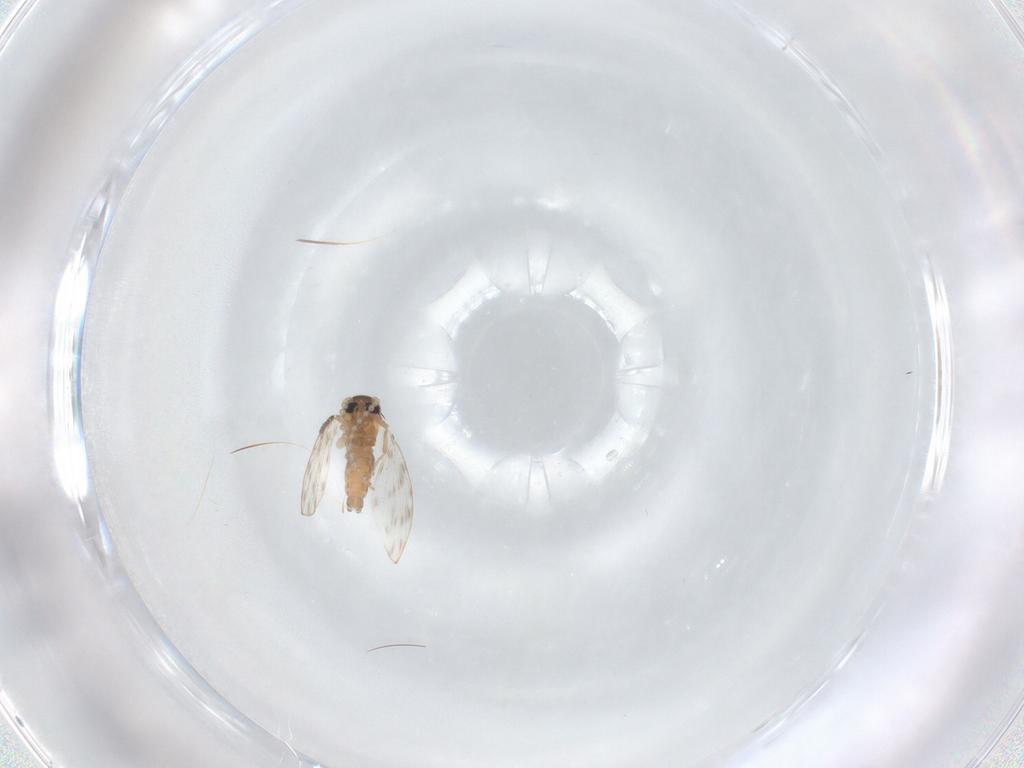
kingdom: Animalia
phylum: Arthropoda
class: Insecta
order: Diptera
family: Psychodidae
